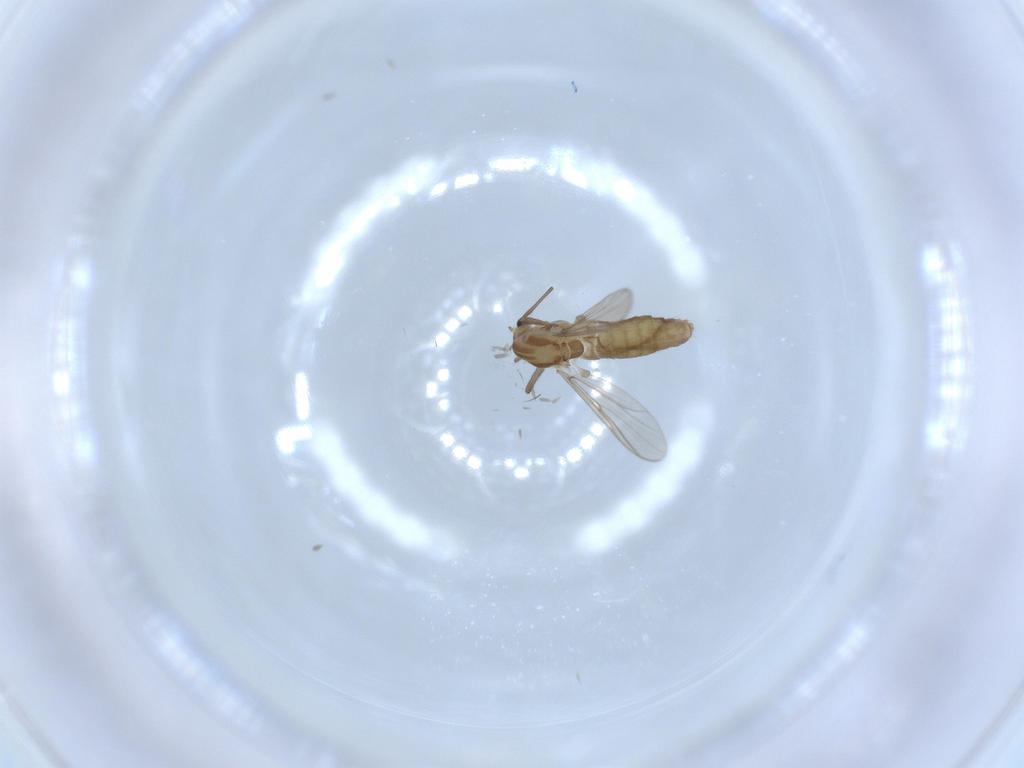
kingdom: Animalia
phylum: Arthropoda
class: Insecta
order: Diptera
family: Chironomidae
